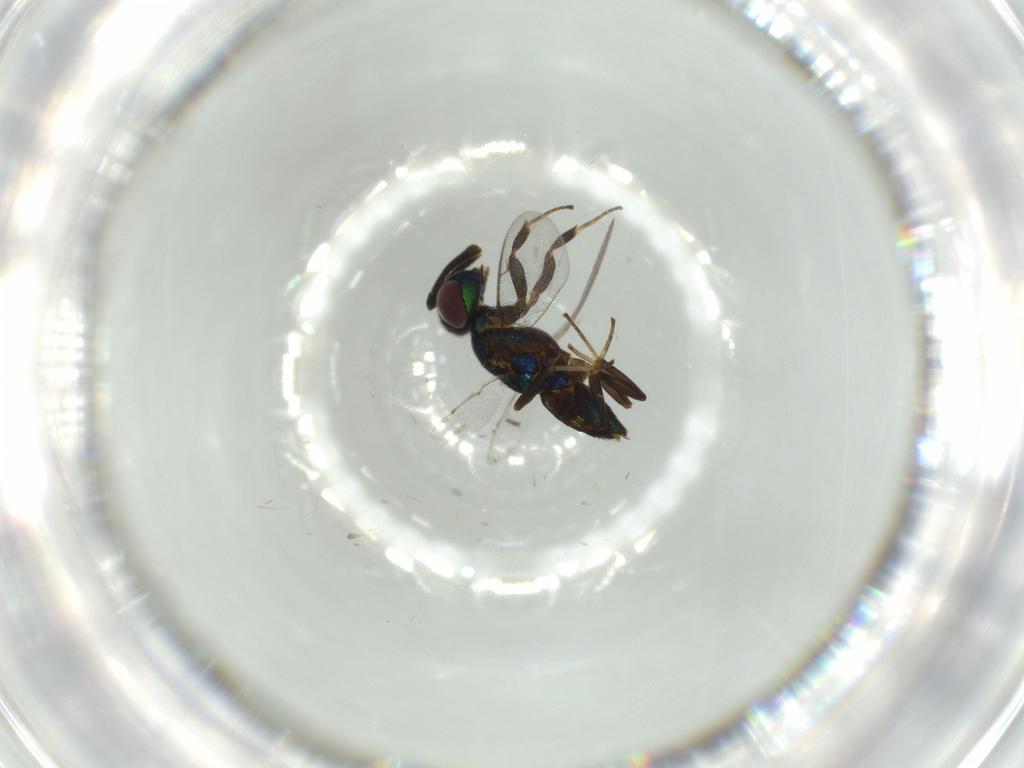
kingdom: Animalia
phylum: Arthropoda
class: Insecta
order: Hymenoptera
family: Eupelmidae
